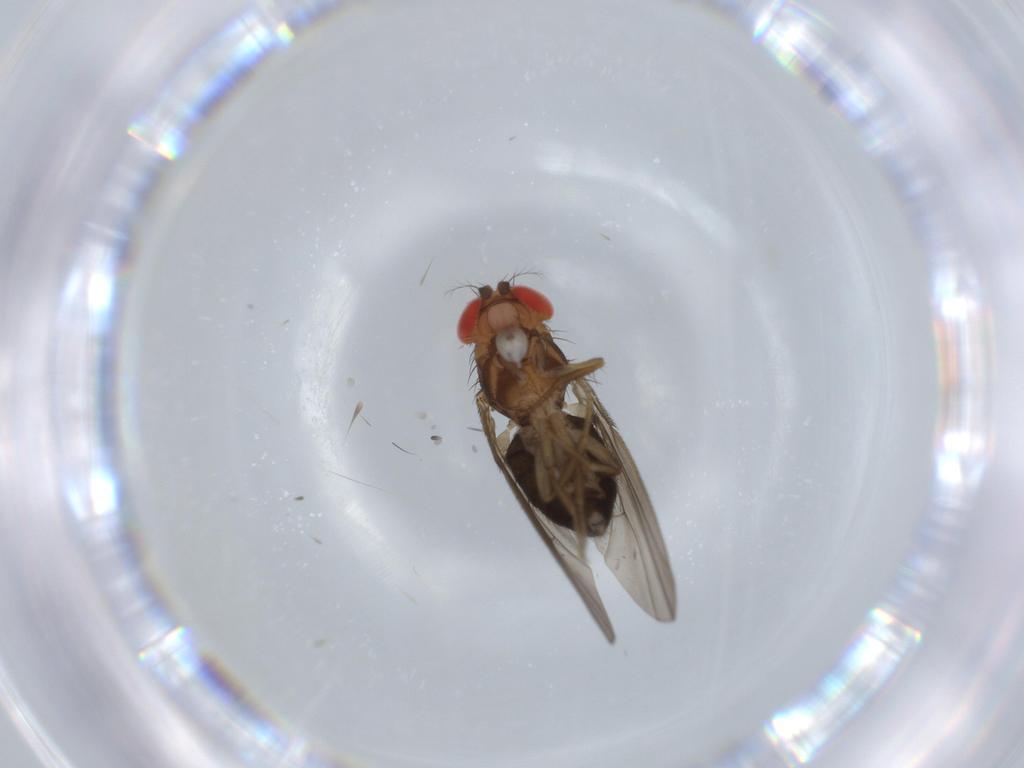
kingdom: Animalia
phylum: Arthropoda
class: Insecta
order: Diptera
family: Drosophilidae
